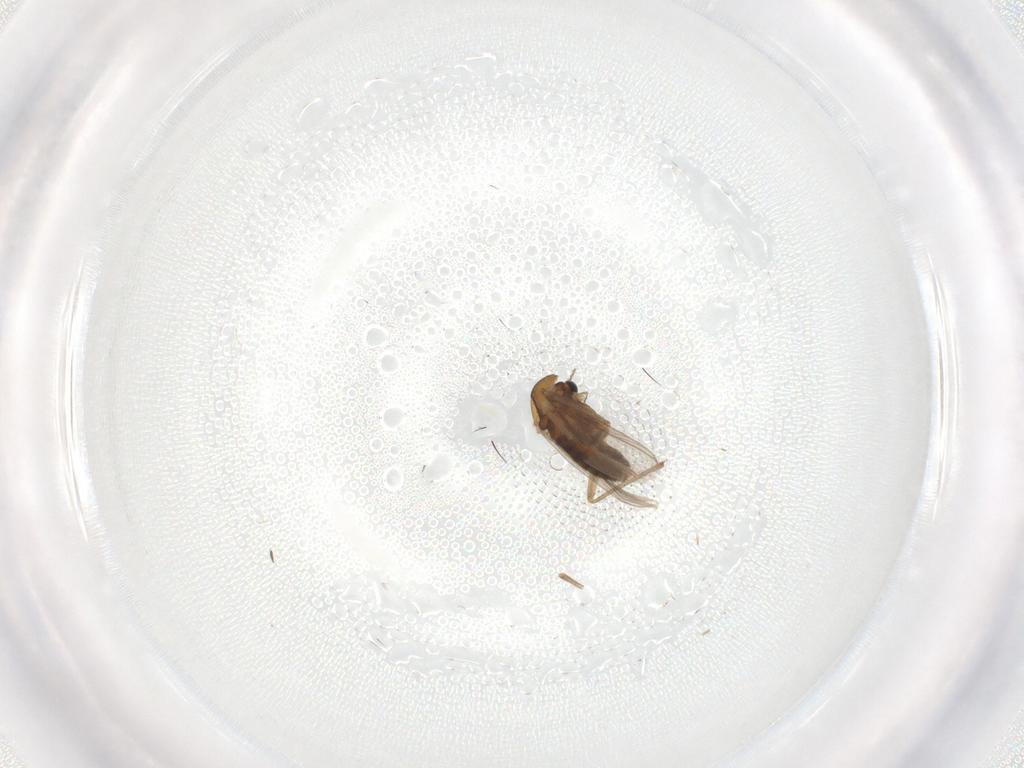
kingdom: Animalia
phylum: Arthropoda
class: Insecta
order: Diptera
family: Chironomidae
